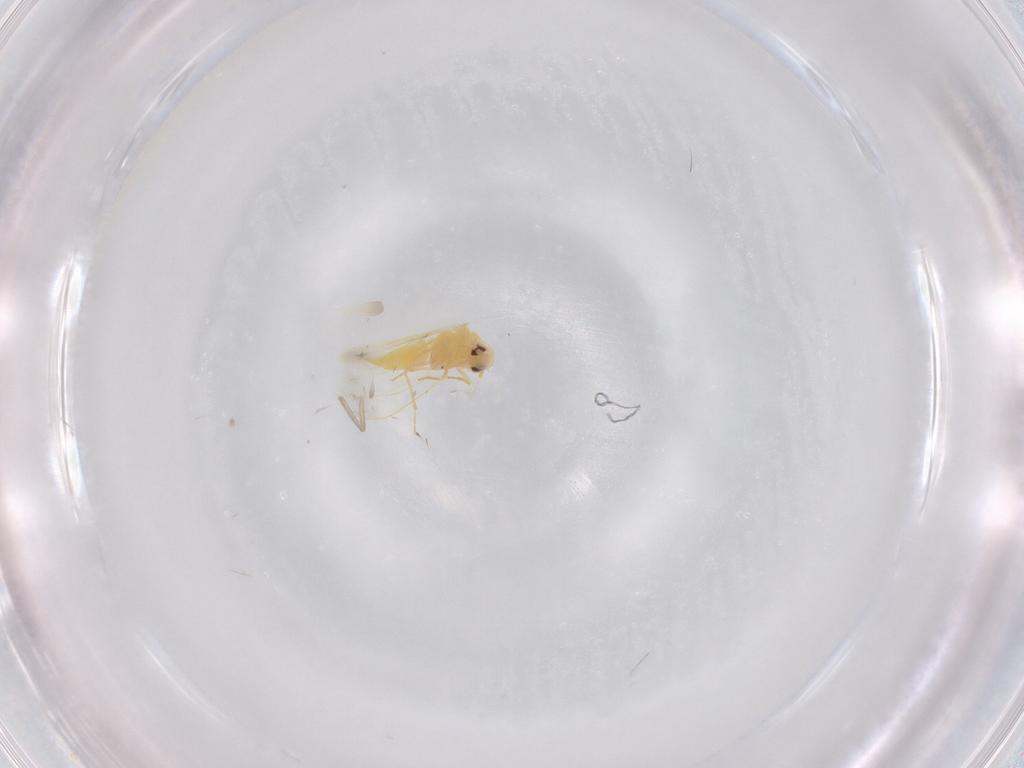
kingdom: Animalia
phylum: Arthropoda
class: Insecta
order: Hemiptera
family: Aleyrodidae
